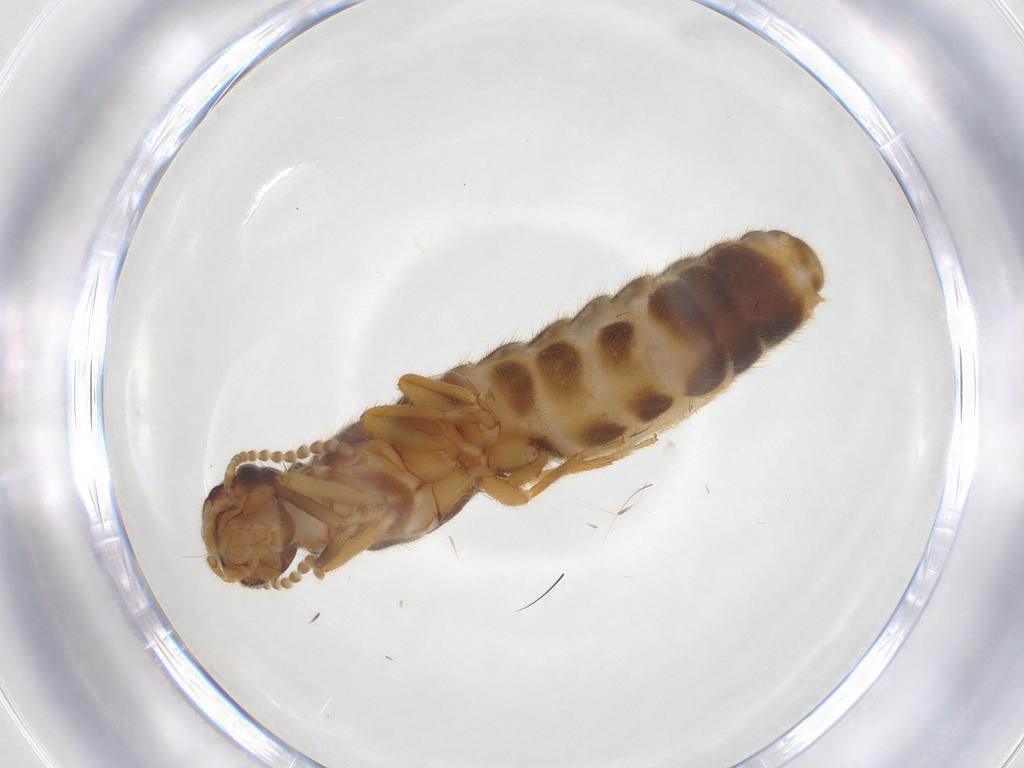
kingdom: Animalia
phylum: Arthropoda
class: Insecta
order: Blattodea
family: Termitidae
